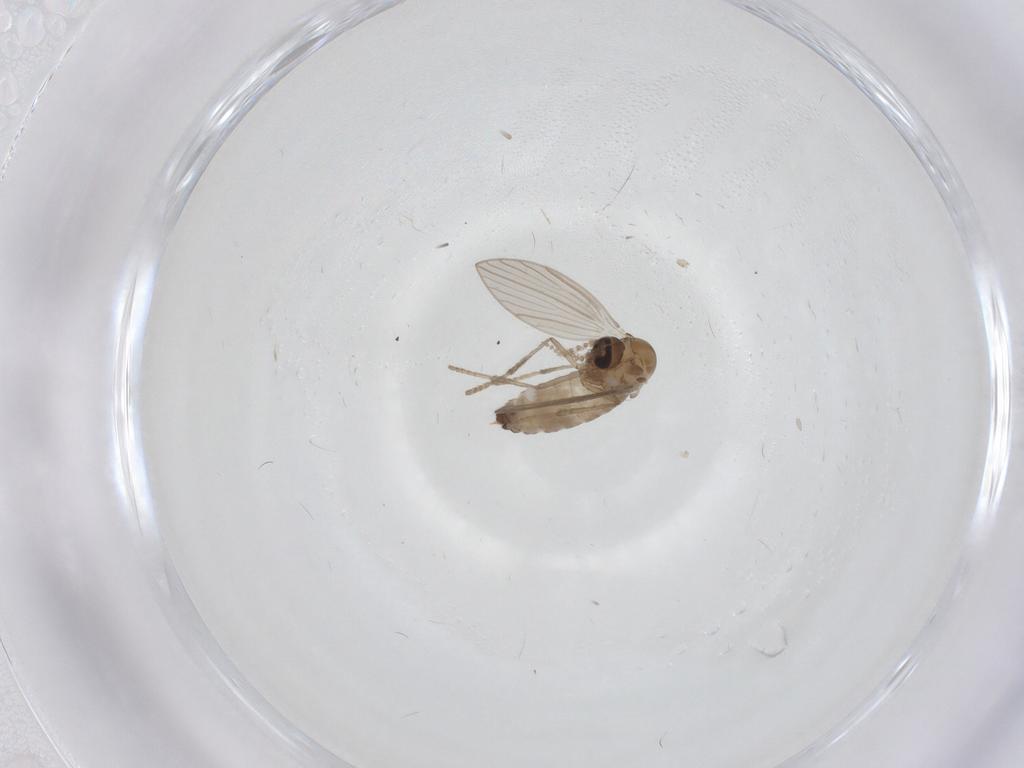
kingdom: Animalia
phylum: Arthropoda
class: Insecta
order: Diptera
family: Psychodidae
